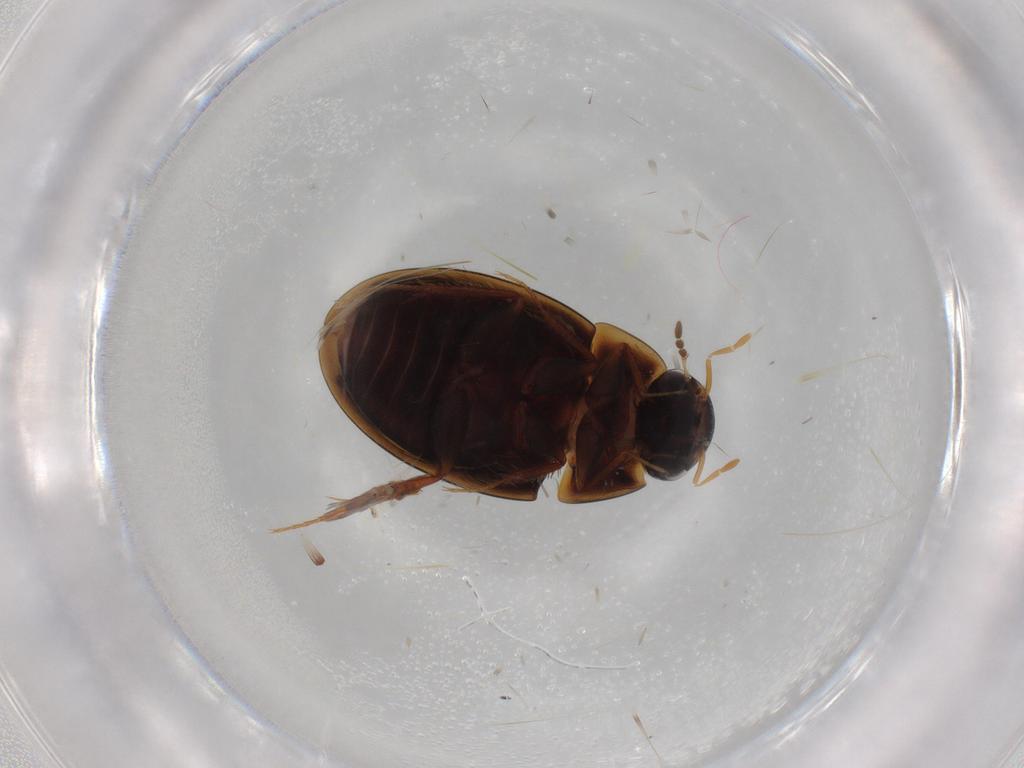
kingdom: Animalia
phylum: Arthropoda
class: Insecta
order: Coleoptera
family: Hydrophilidae
